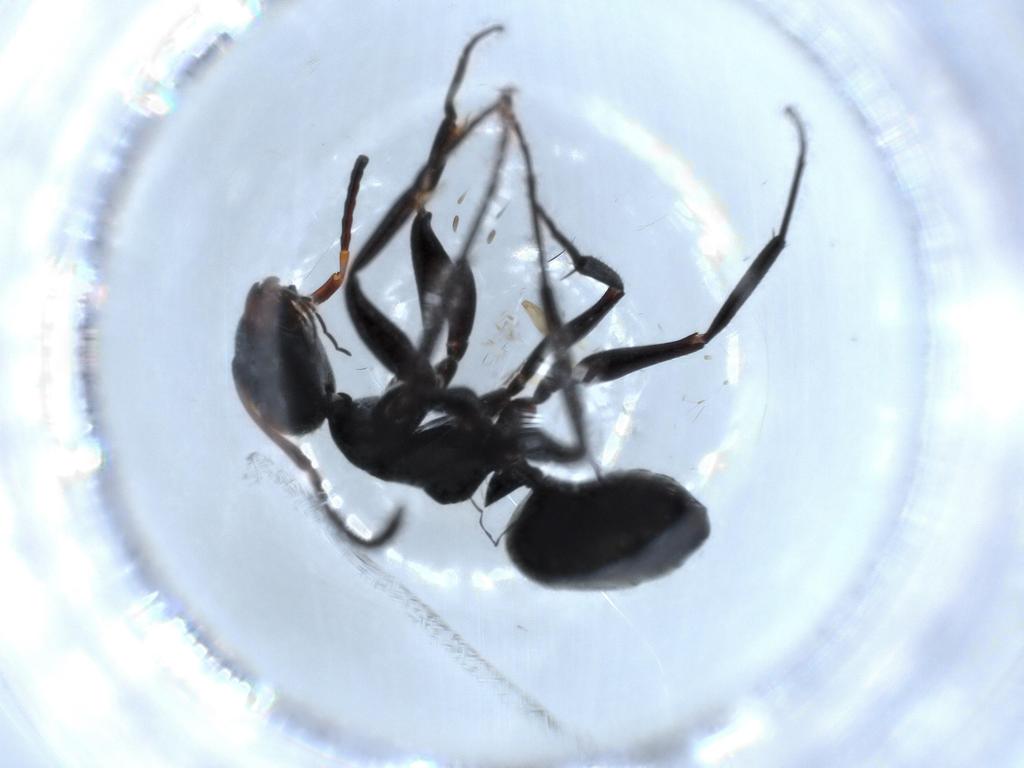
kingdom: Animalia
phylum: Arthropoda
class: Insecta
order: Hymenoptera
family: Formicidae
